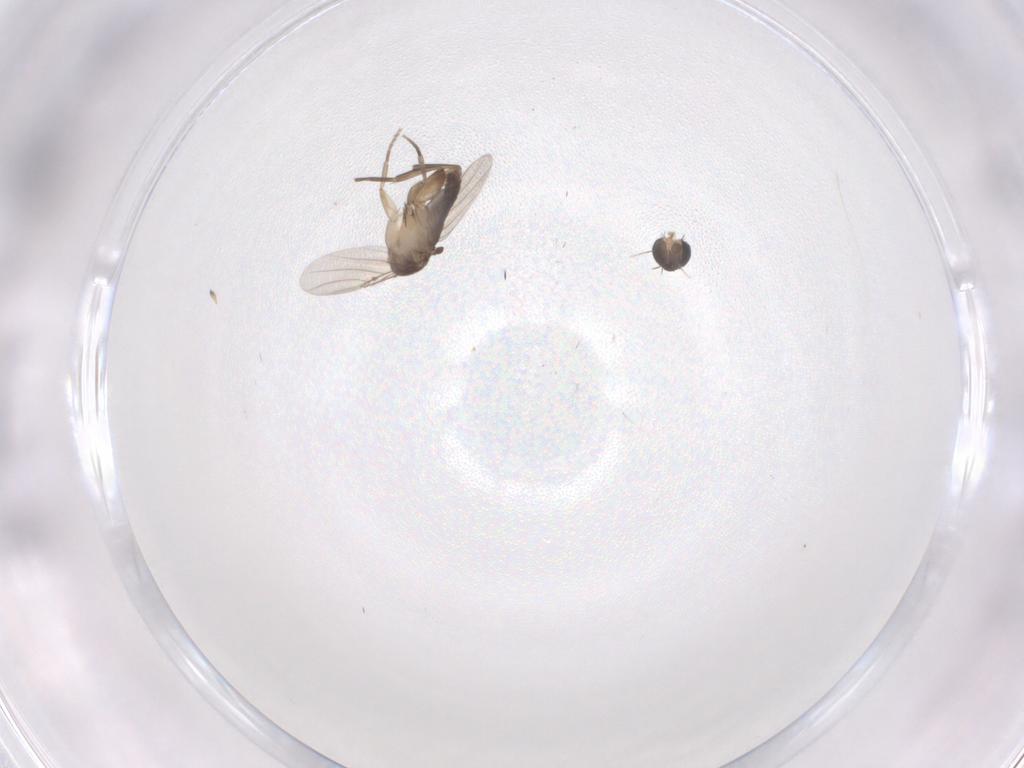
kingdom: Animalia
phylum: Arthropoda
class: Insecta
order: Diptera
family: Phoridae
